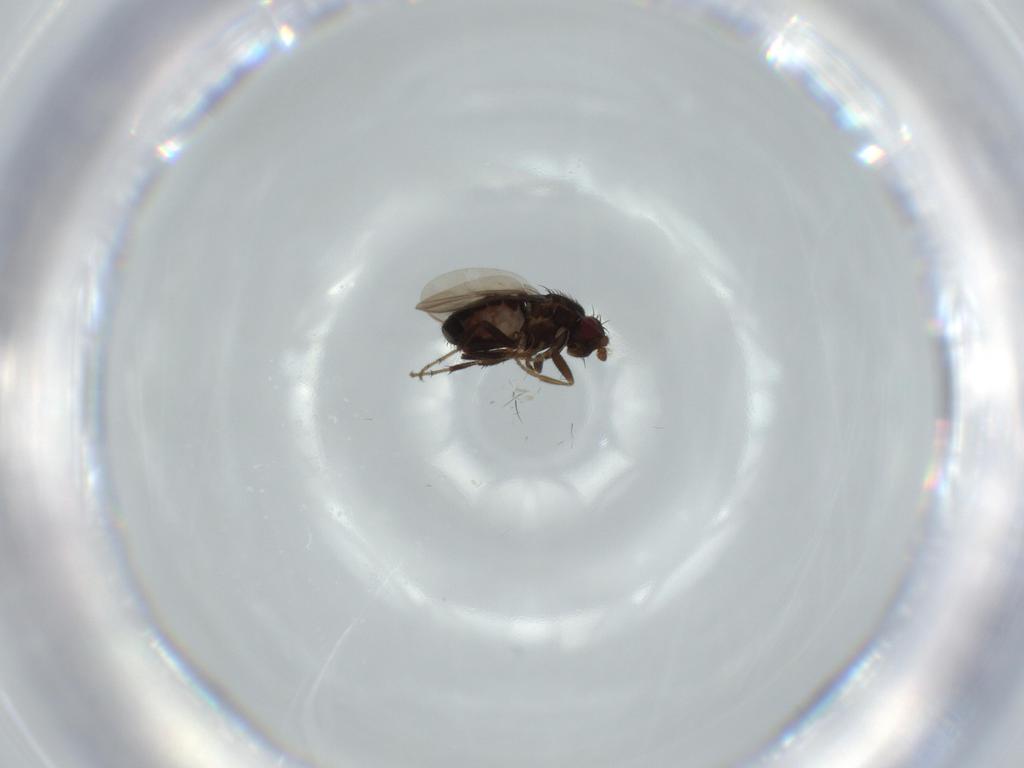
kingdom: Animalia
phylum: Arthropoda
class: Insecta
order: Diptera
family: Sphaeroceridae
